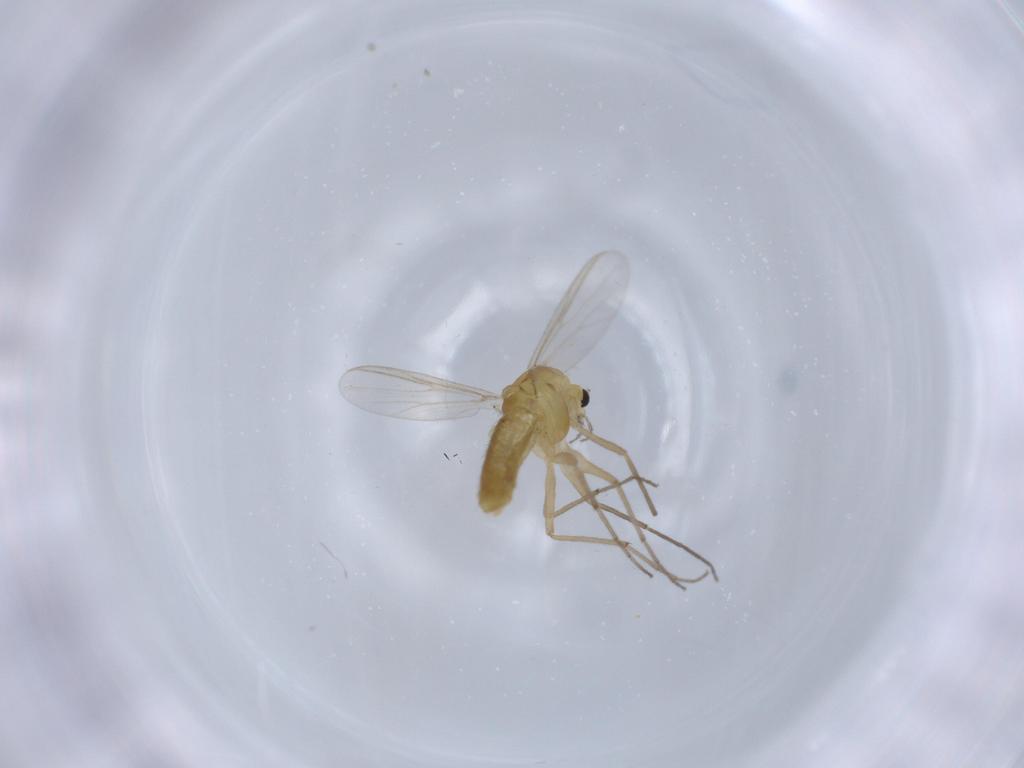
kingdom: Animalia
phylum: Arthropoda
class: Insecta
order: Diptera
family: Chironomidae
